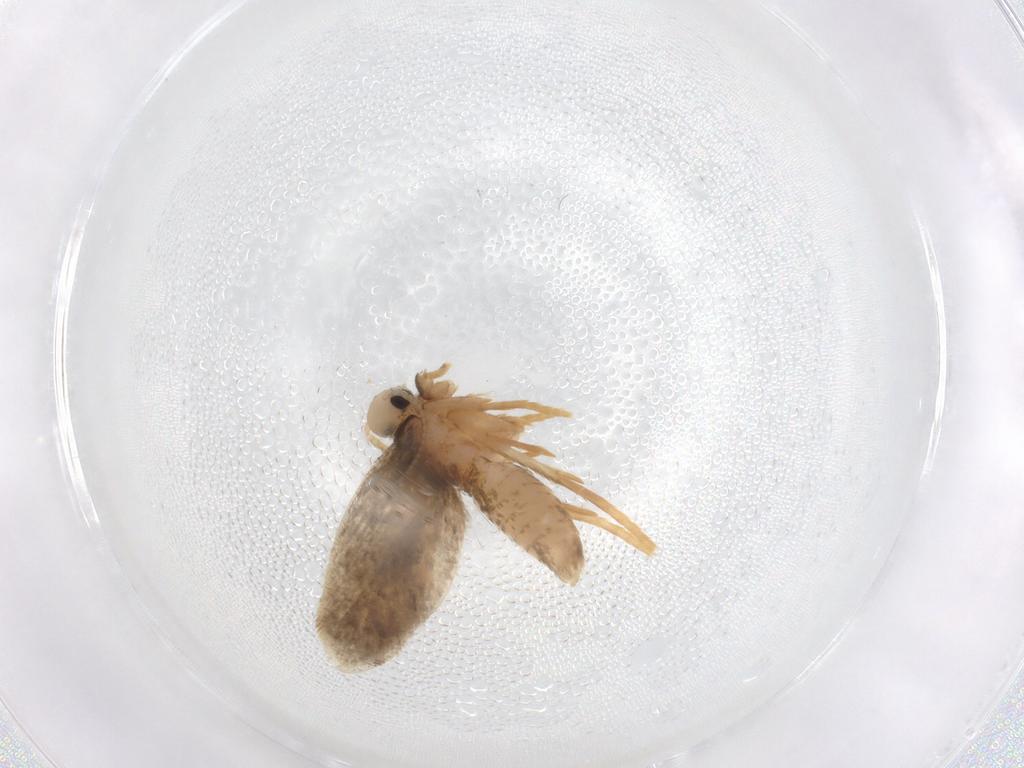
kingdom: Animalia
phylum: Arthropoda
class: Insecta
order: Lepidoptera
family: Psychidae
